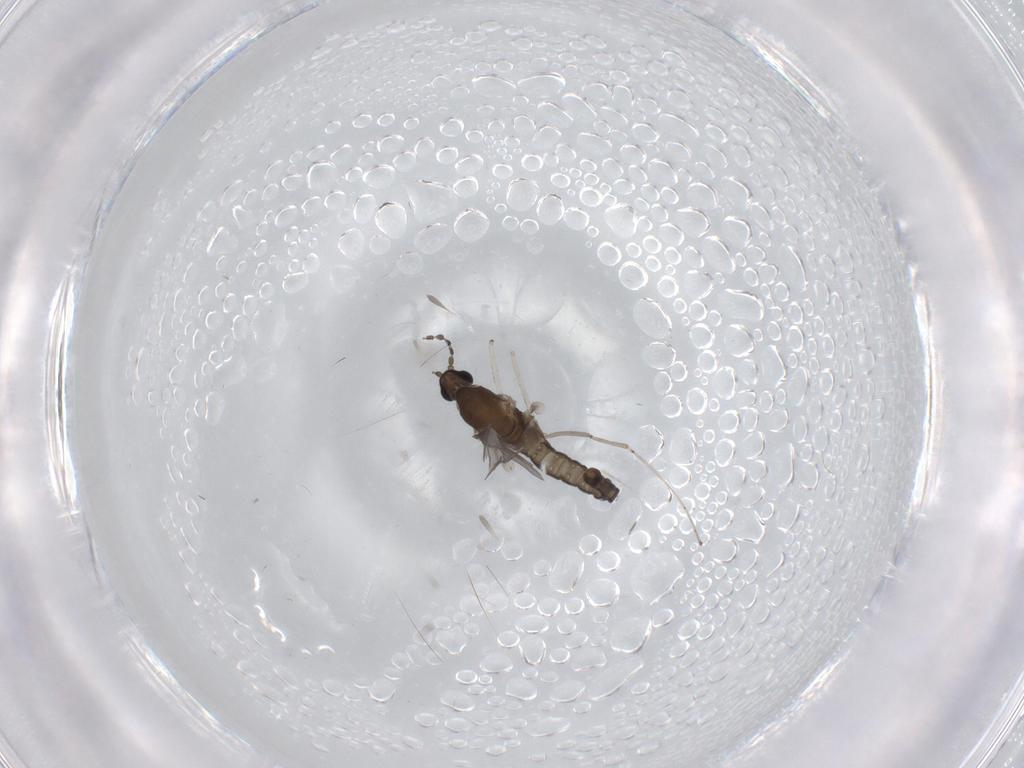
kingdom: Animalia
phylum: Arthropoda
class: Insecta
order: Diptera
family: Cecidomyiidae
